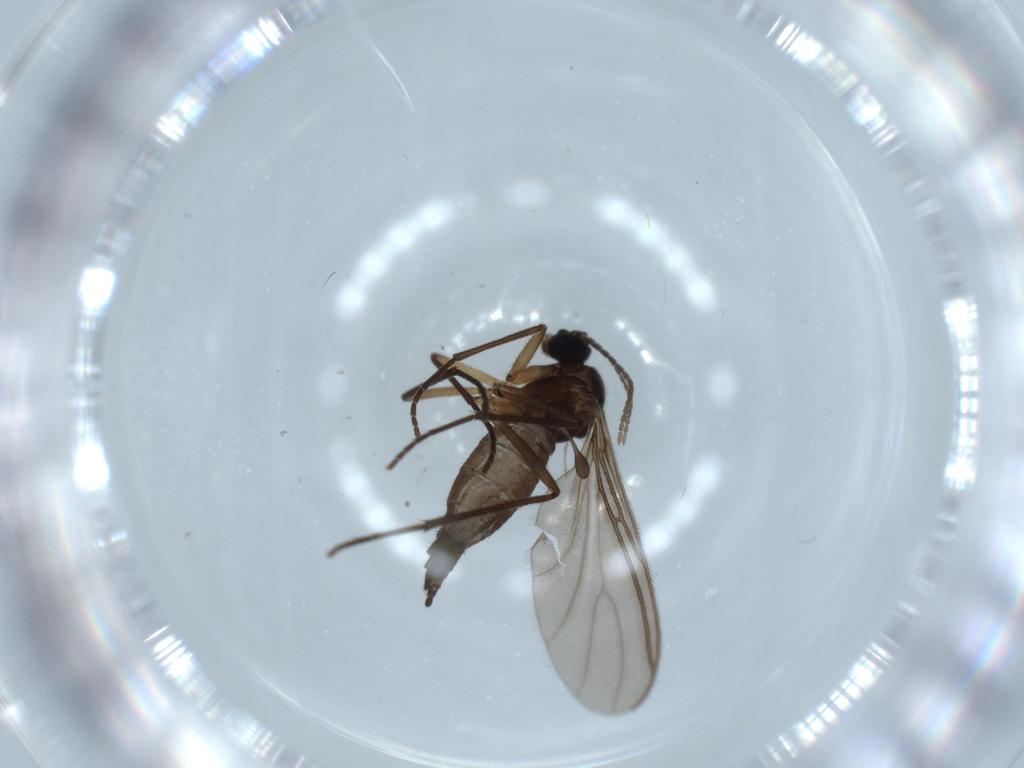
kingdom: Animalia
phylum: Arthropoda
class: Insecta
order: Diptera
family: Sciaridae
